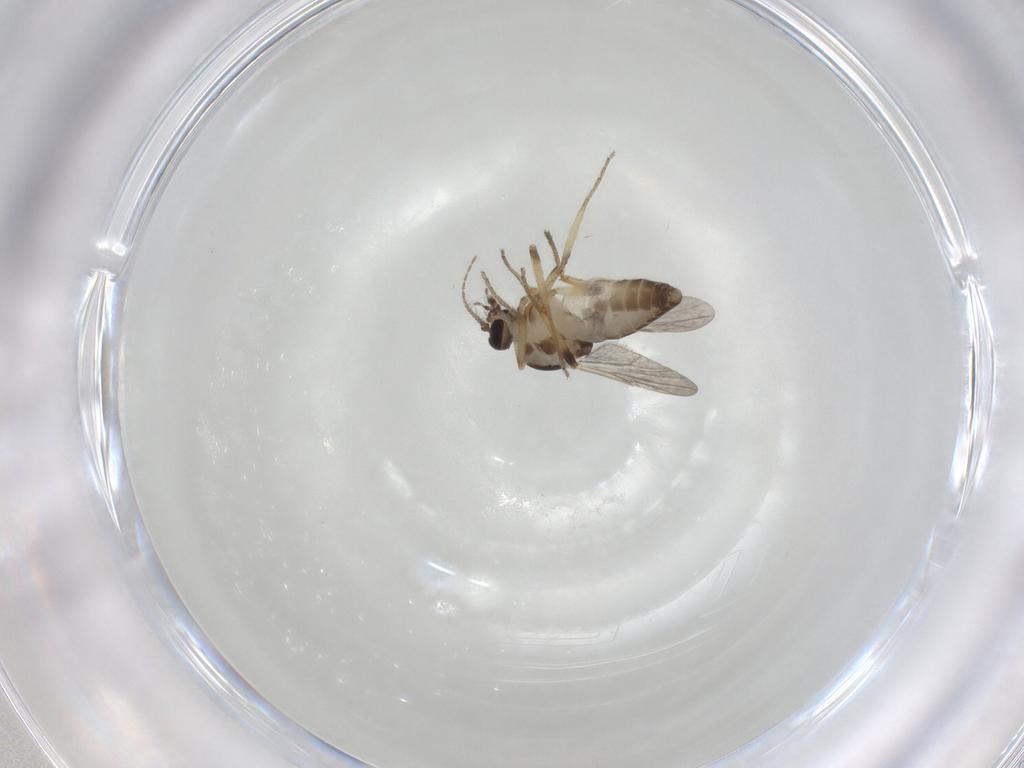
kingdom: Animalia
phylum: Arthropoda
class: Insecta
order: Diptera
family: Ceratopogonidae
